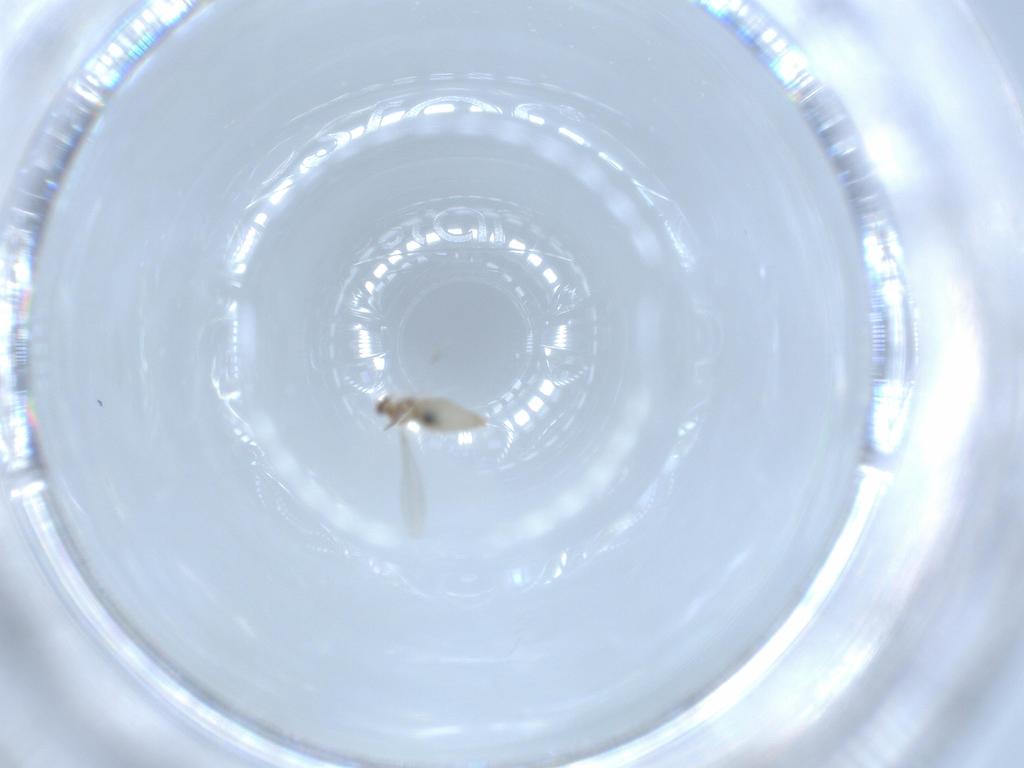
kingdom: Animalia
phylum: Arthropoda
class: Insecta
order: Diptera
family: Cecidomyiidae
